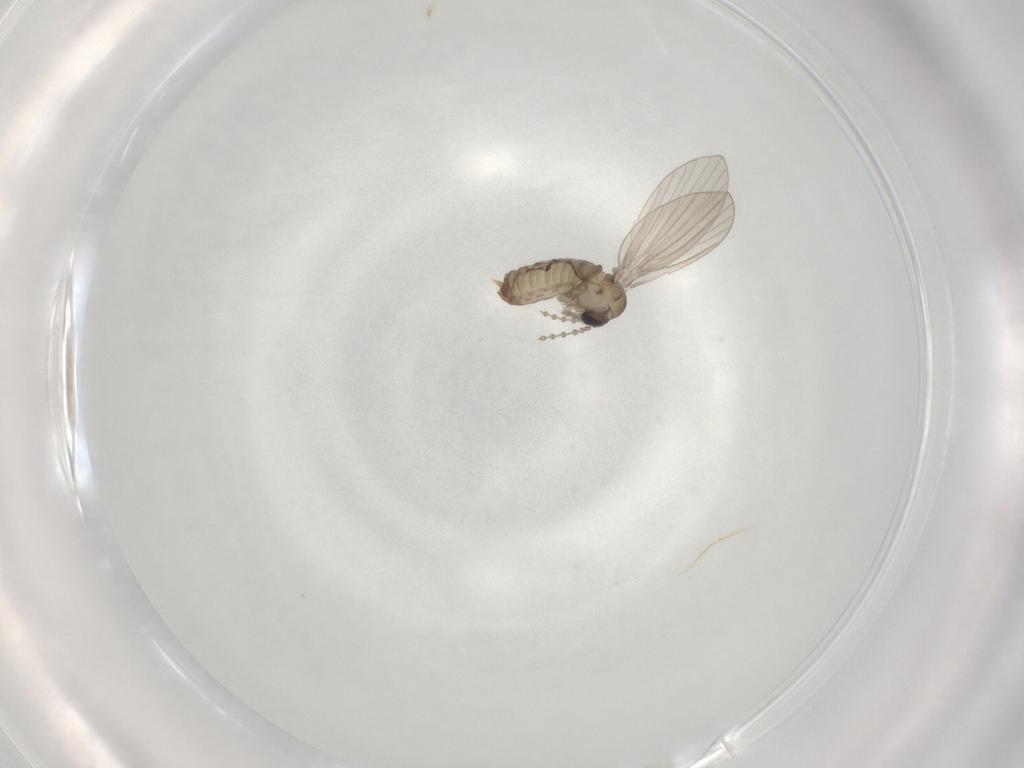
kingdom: Animalia
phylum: Arthropoda
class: Insecta
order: Diptera
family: Psychodidae
